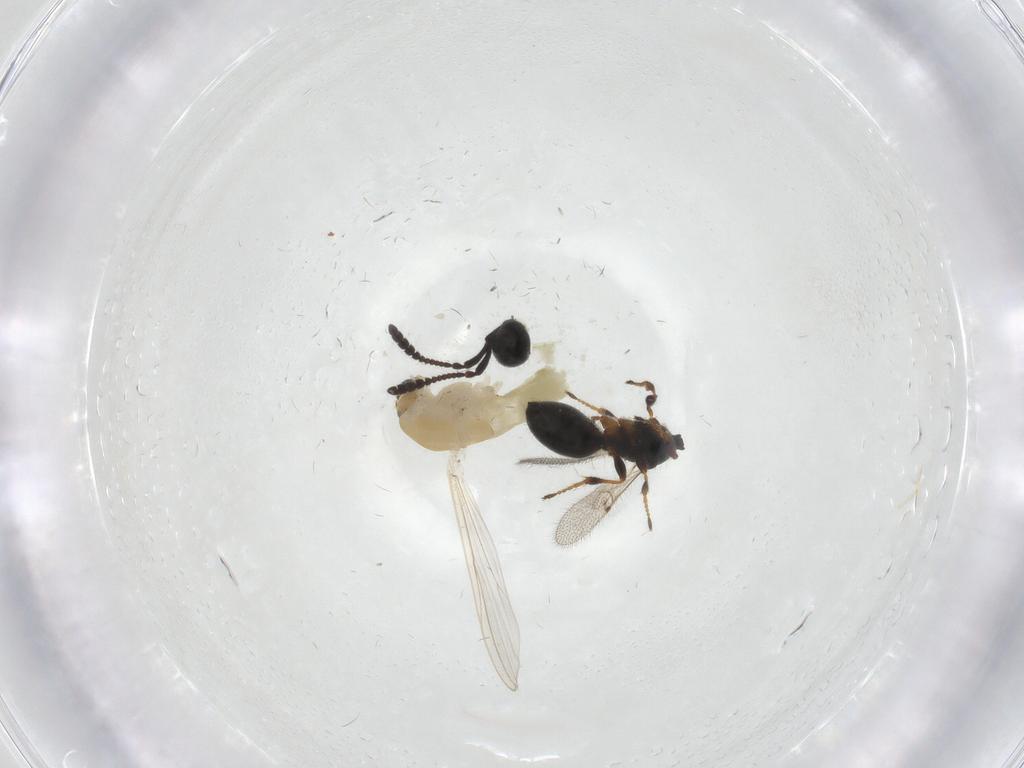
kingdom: Animalia
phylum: Arthropoda
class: Insecta
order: Diptera
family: Chironomidae
